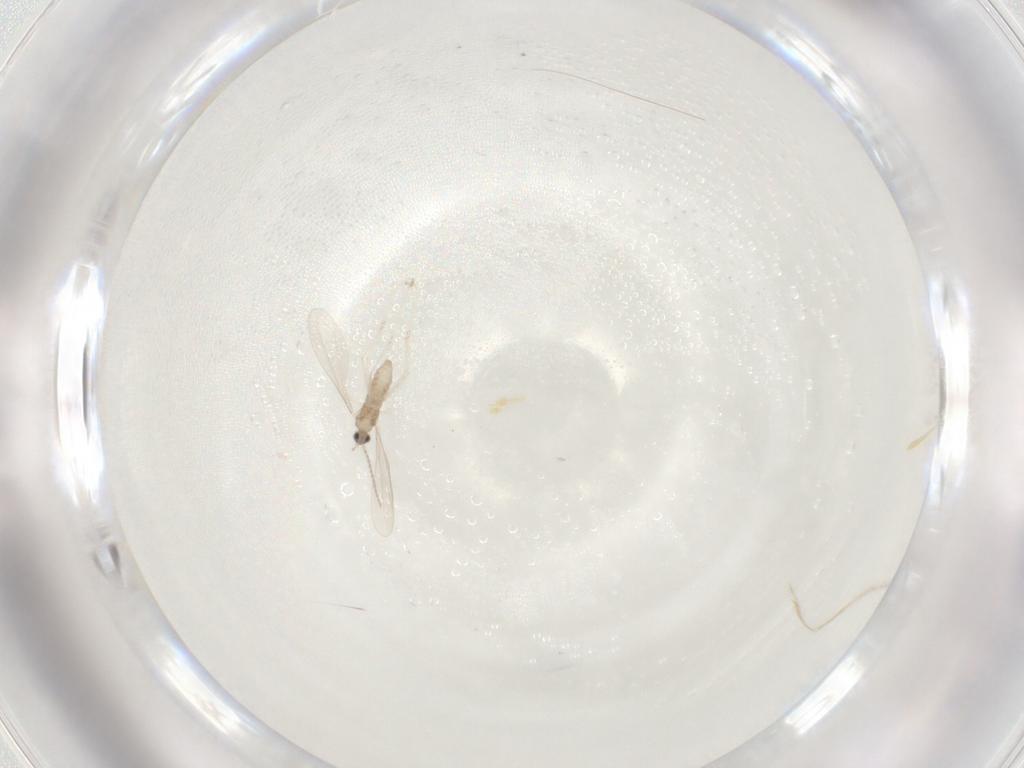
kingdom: Animalia
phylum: Arthropoda
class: Insecta
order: Diptera
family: Cecidomyiidae
